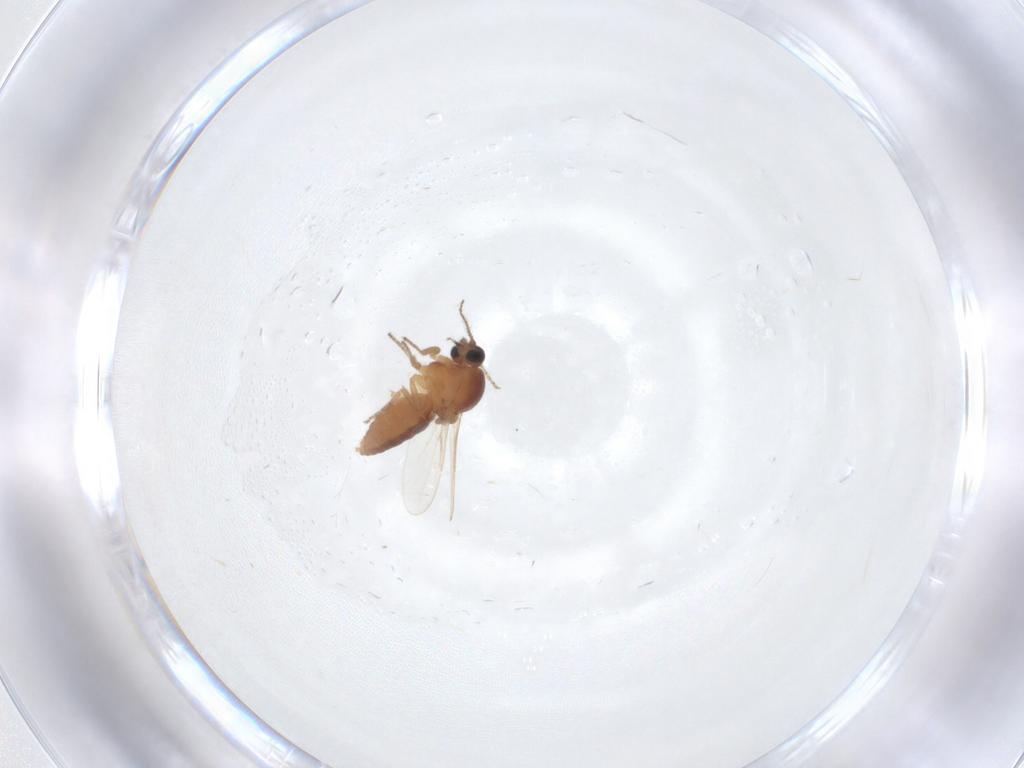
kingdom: Animalia
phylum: Arthropoda
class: Insecta
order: Diptera
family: Ceratopogonidae
